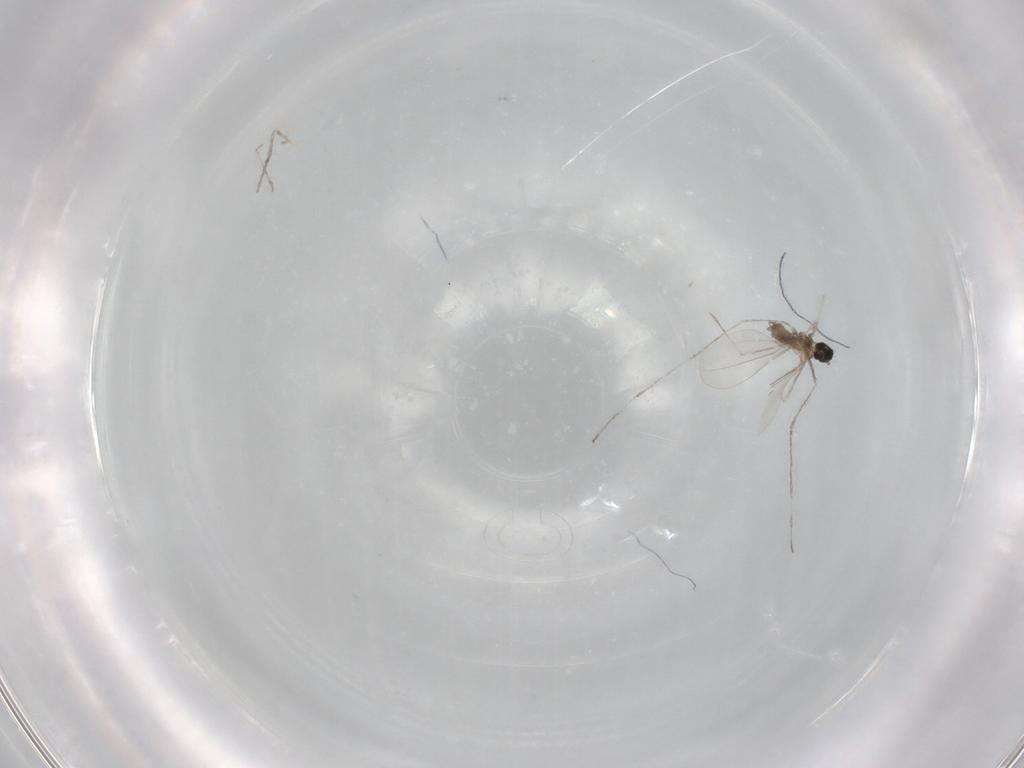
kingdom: Animalia
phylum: Arthropoda
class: Insecta
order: Diptera
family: Cecidomyiidae
